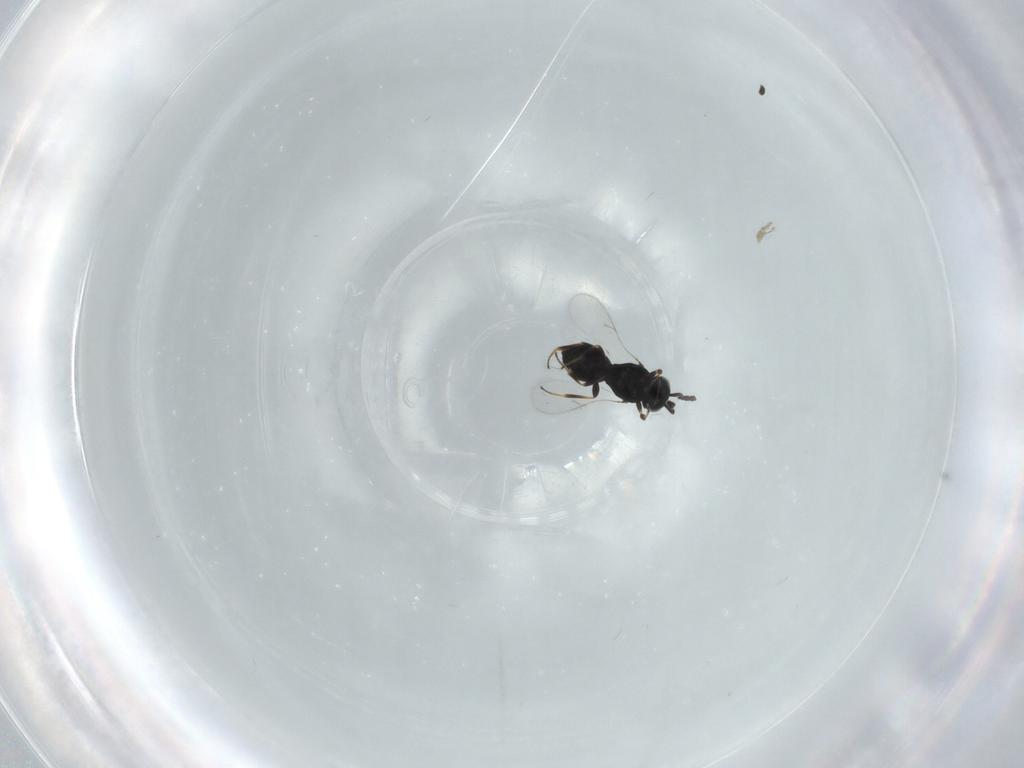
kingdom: Animalia
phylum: Arthropoda
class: Insecta
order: Hymenoptera
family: Scelionidae
